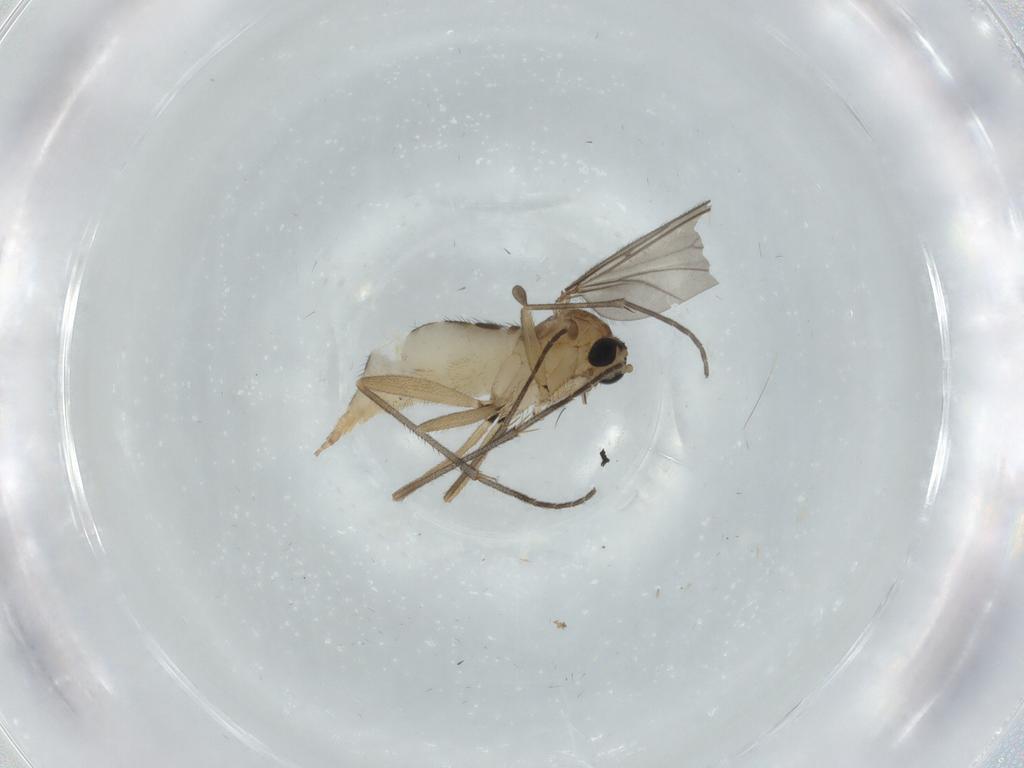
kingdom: Animalia
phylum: Arthropoda
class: Insecta
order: Diptera
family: Sciaridae
